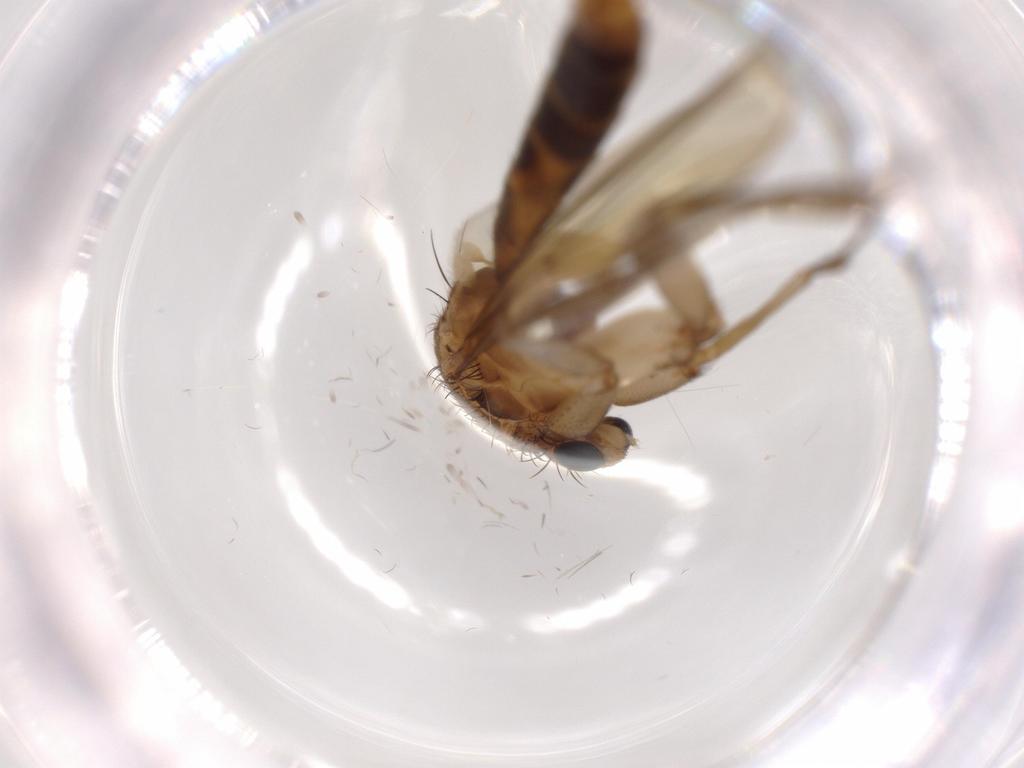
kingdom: Animalia
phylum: Arthropoda
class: Insecta
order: Diptera
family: Mycetophilidae
